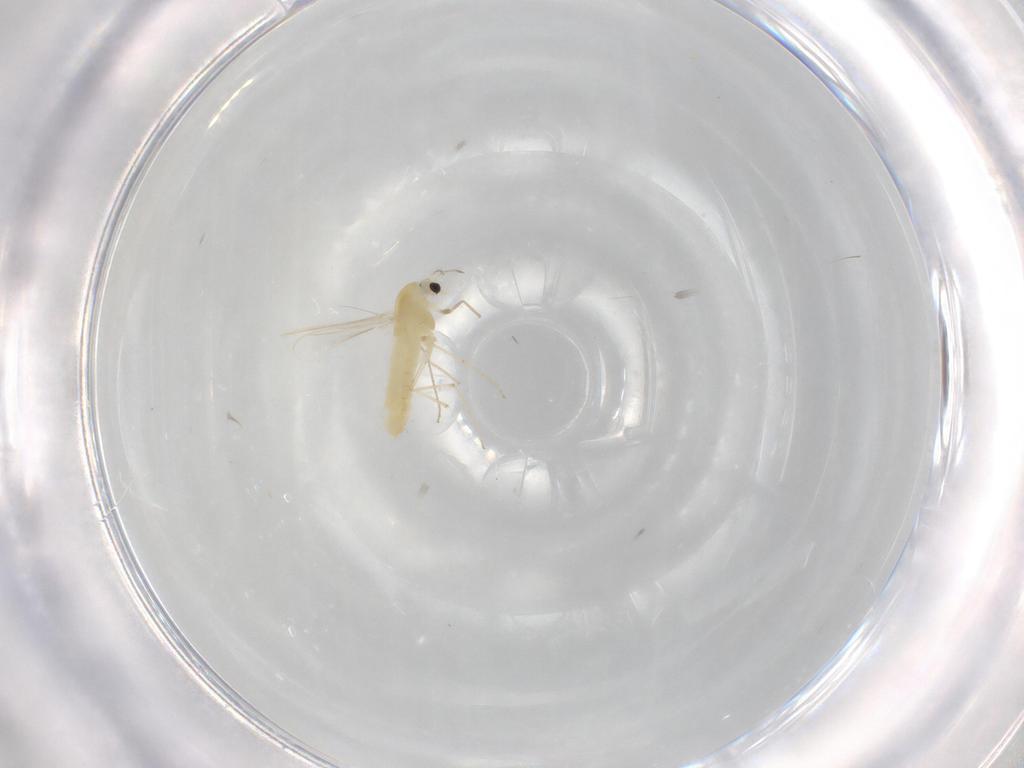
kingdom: Animalia
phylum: Arthropoda
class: Insecta
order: Diptera
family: Chironomidae
